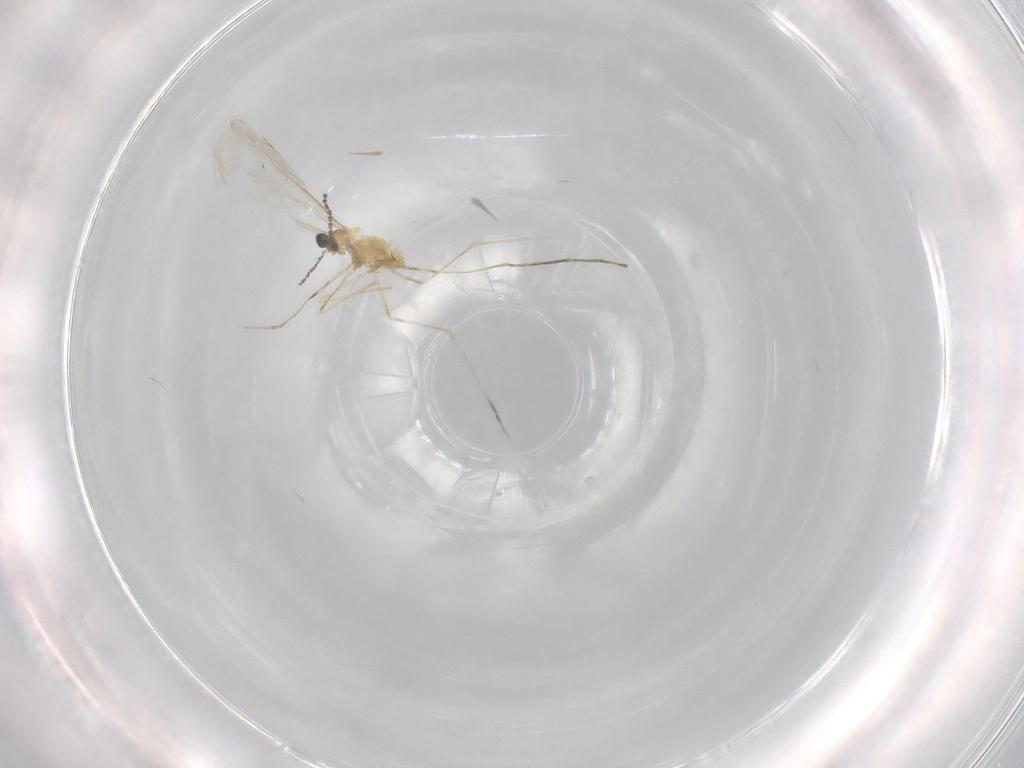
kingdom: Animalia
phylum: Arthropoda
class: Insecta
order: Diptera
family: Cecidomyiidae
